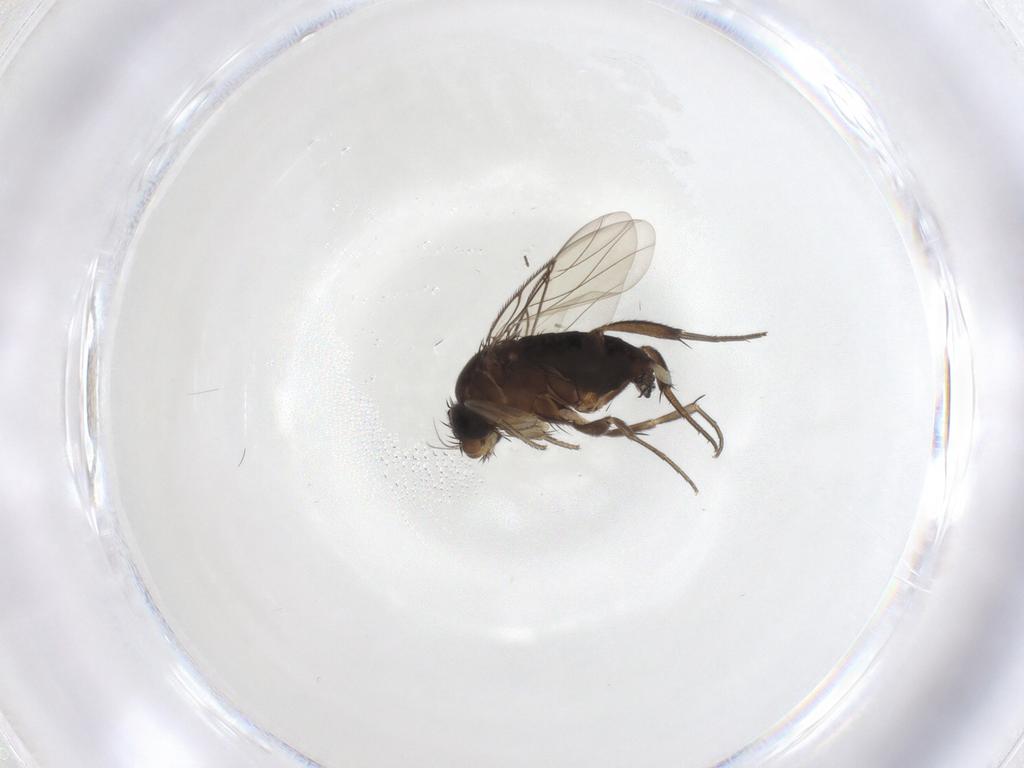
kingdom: Animalia
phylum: Arthropoda
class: Insecta
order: Diptera
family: Phoridae
